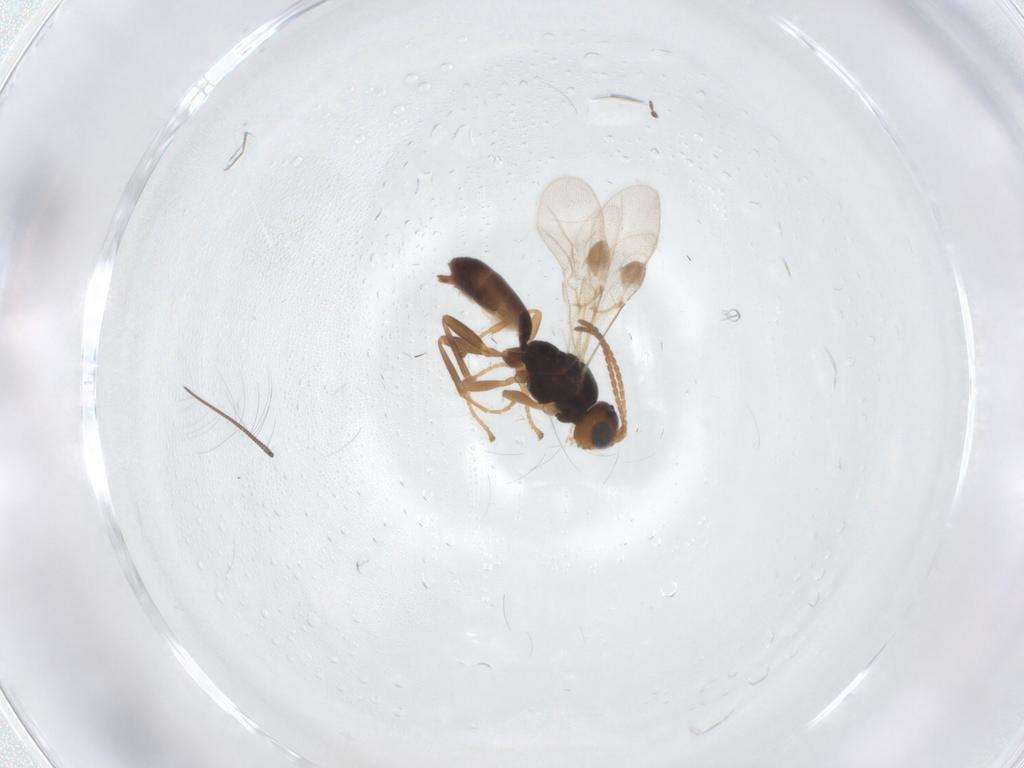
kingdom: Animalia
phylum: Arthropoda
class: Insecta
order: Hymenoptera
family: Braconidae
